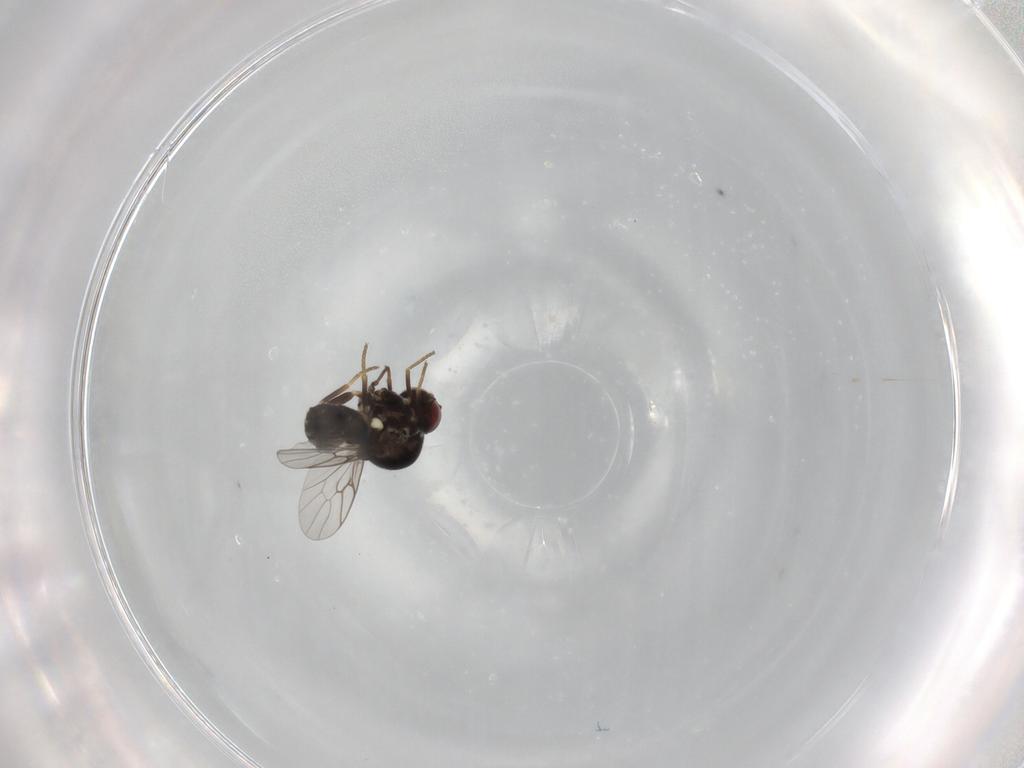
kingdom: Animalia
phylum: Arthropoda
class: Insecta
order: Diptera
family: Bombyliidae
